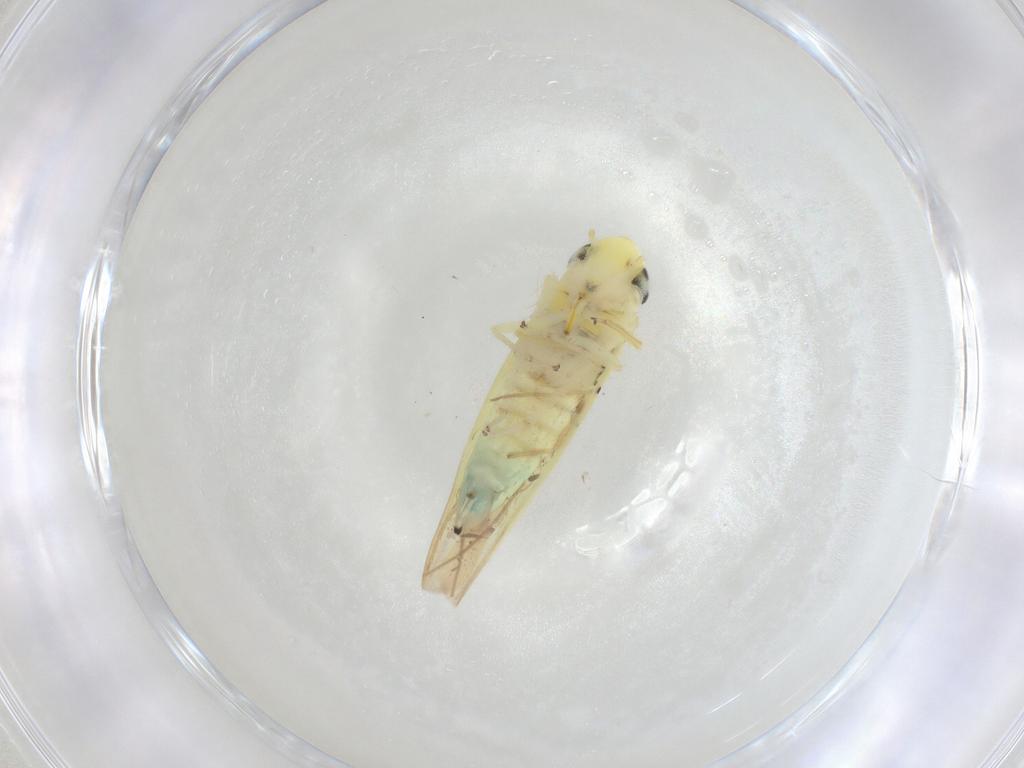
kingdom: Animalia
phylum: Arthropoda
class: Insecta
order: Hemiptera
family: Cicadellidae
